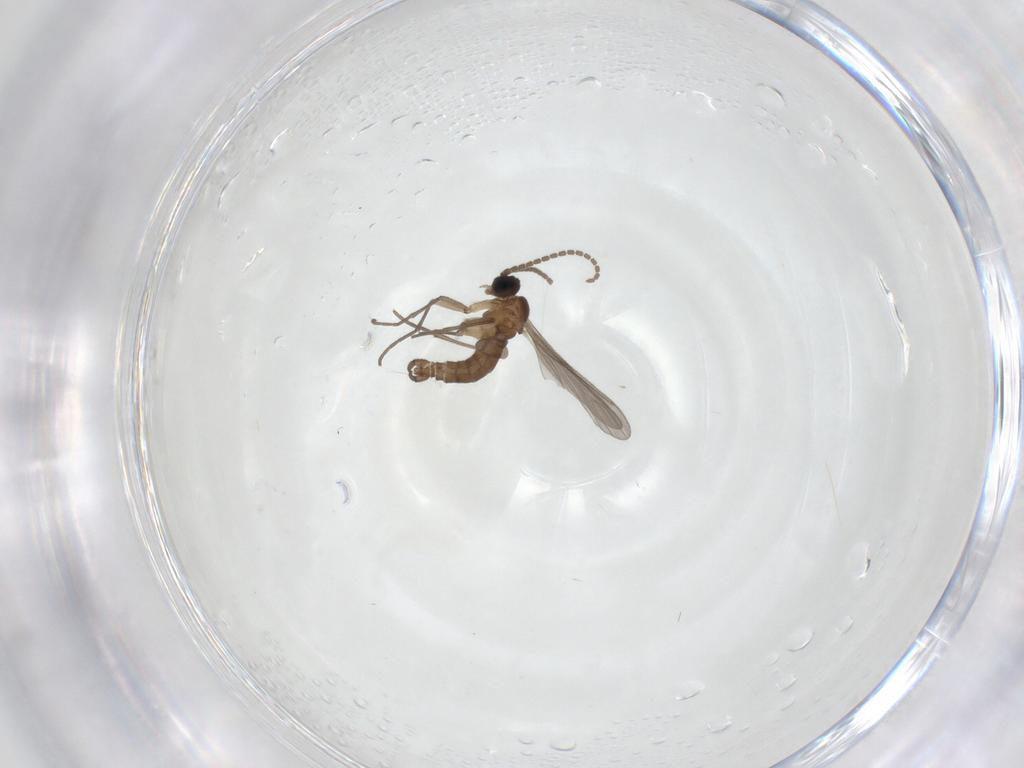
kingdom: Animalia
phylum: Arthropoda
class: Insecta
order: Diptera
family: Sciaridae
